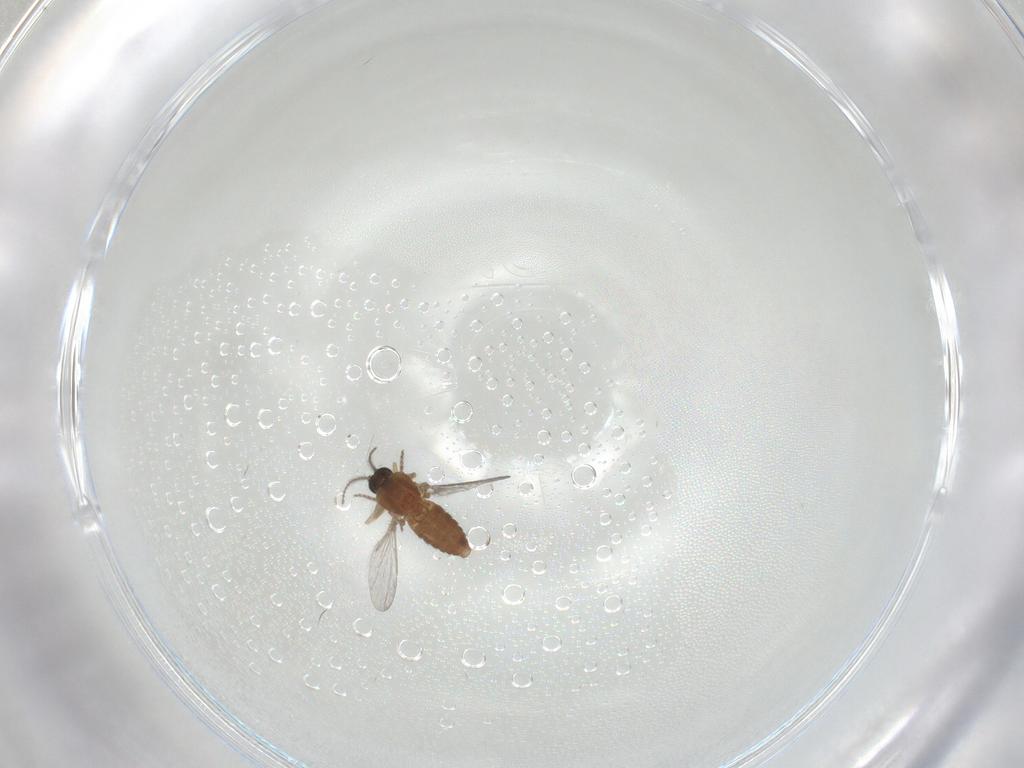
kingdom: Animalia
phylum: Arthropoda
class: Insecta
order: Diptera
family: Ceratopogonidae
